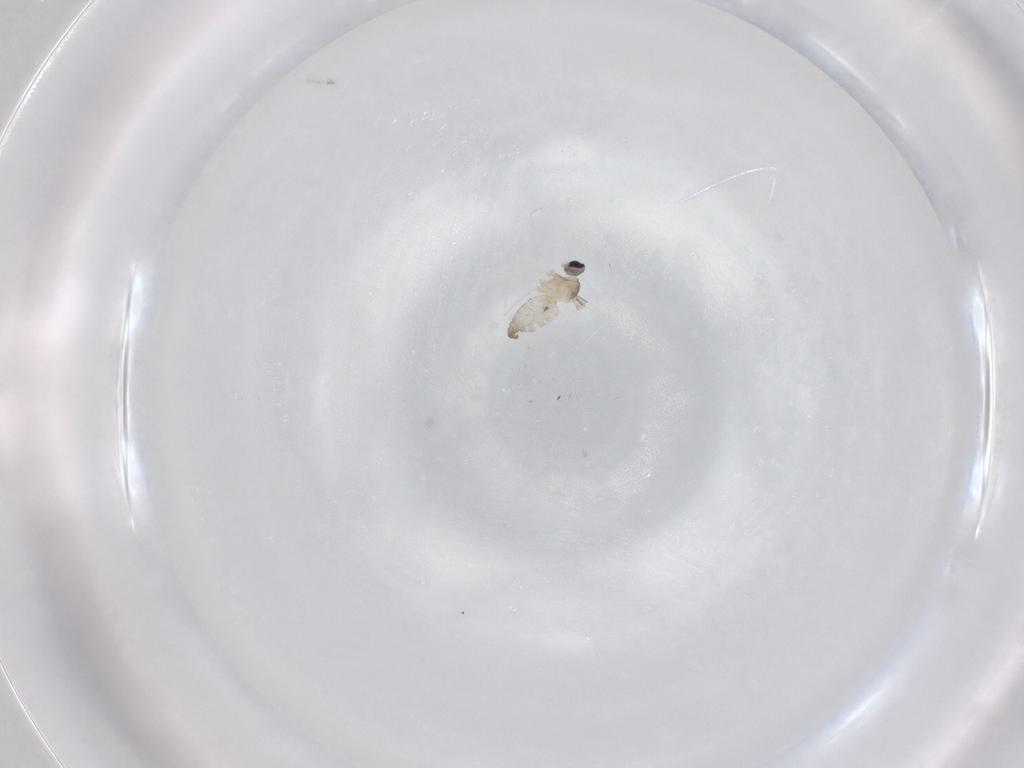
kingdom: Animalia
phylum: Arthropoda
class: Insecta
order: Diptera
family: Cecidomyiidae
